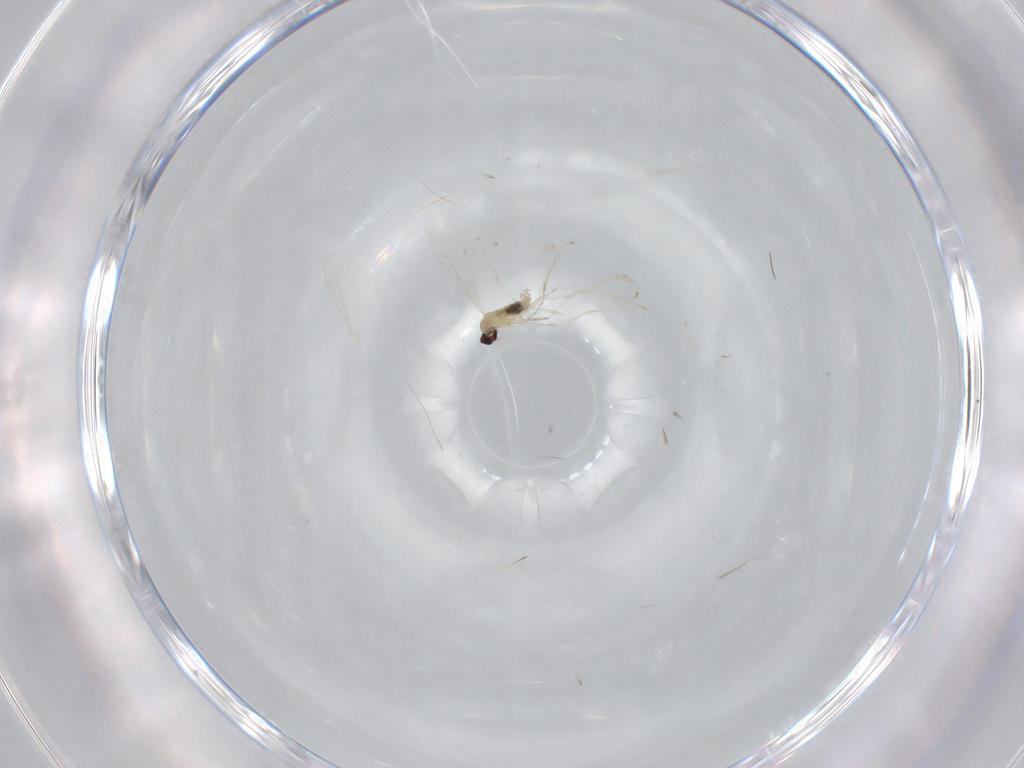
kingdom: Animalia
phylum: Arthropoda
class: Insecta
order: Diptera
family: Cecidomyiidae
